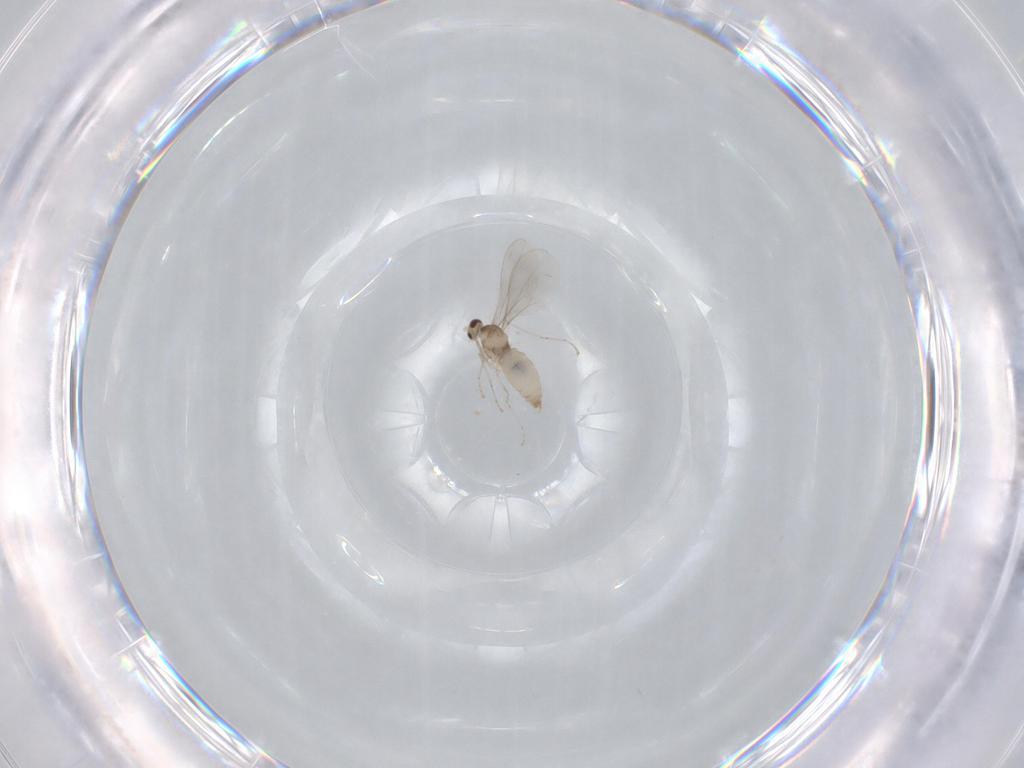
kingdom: Animalia
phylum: Arthropoda
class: Insecta
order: Diptera
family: Cecidomyiidae
